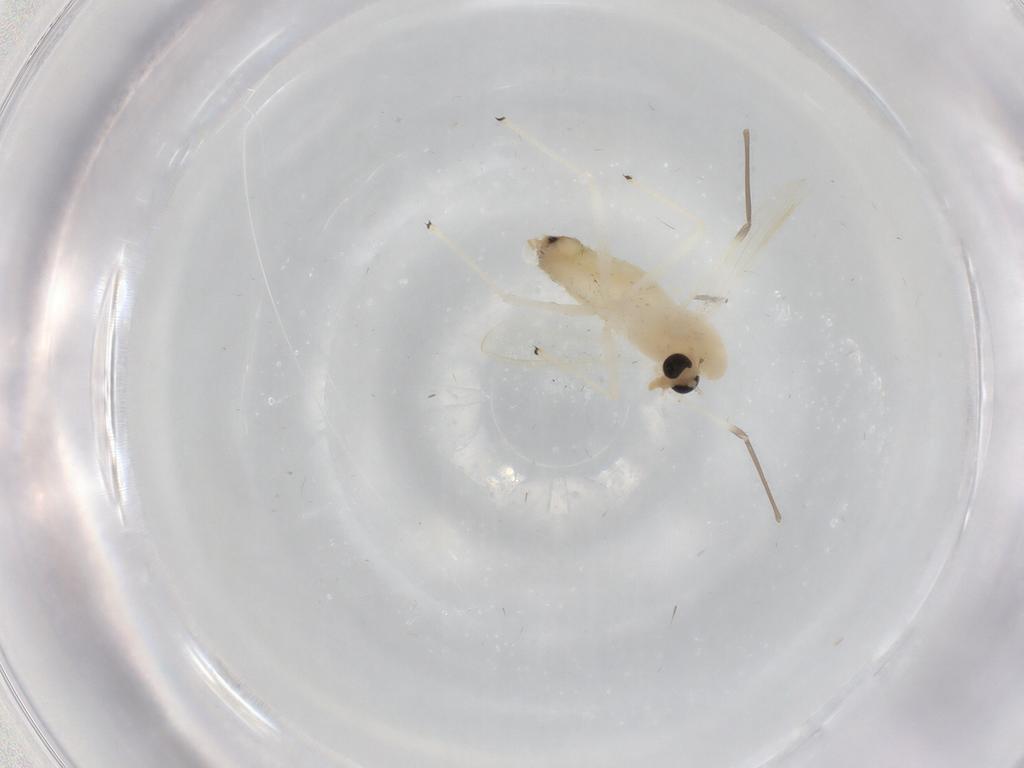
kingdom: Animalia
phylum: Arthropoda
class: Insecta
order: Diptera
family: Chironomidae
